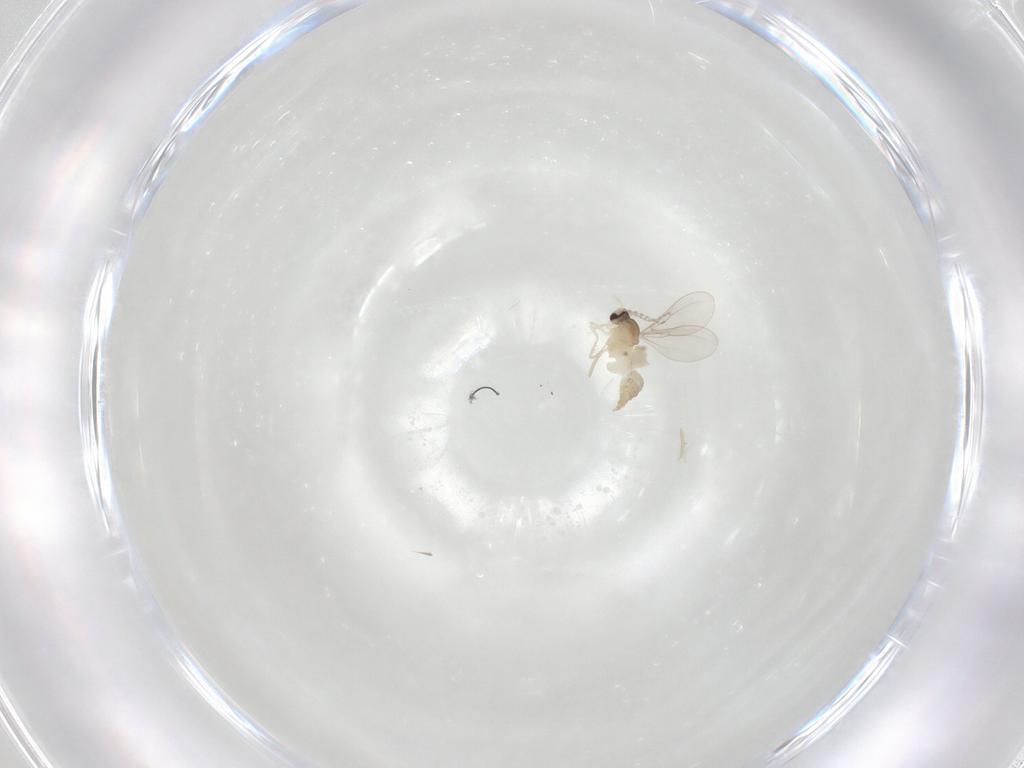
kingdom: Animalia
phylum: Arthropoda
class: Insecta
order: Diptera
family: Cecidomyiidae
